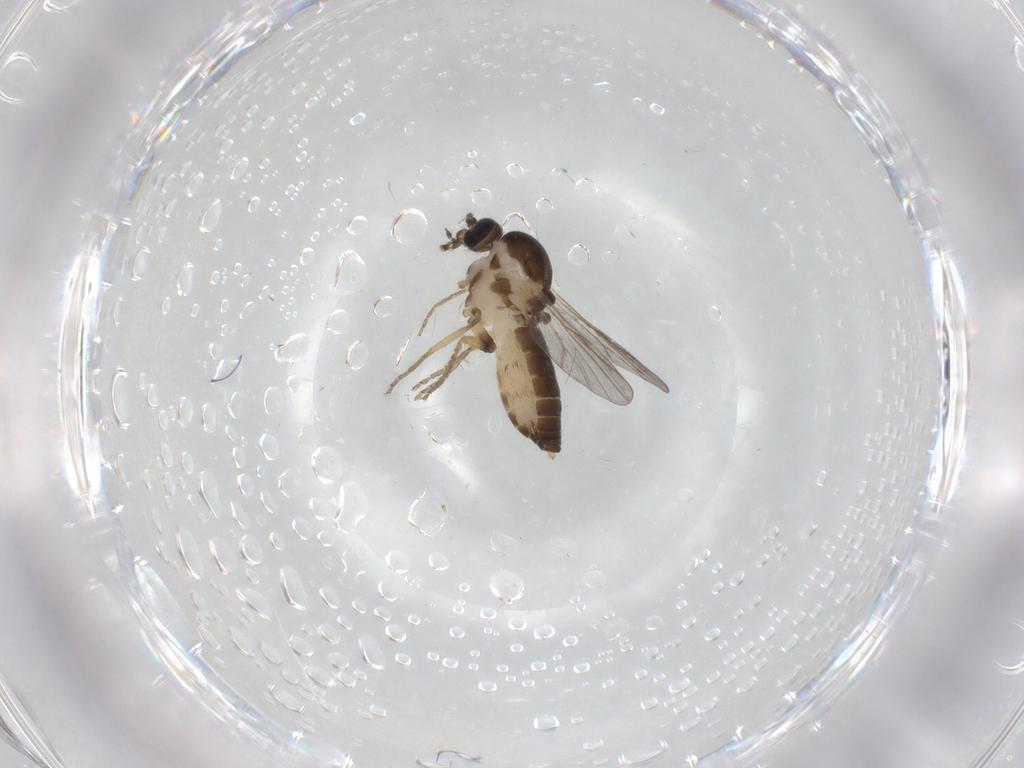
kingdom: Animalia
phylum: Arthropoda
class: Insecta
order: Diptera
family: Ceratopogonidae
